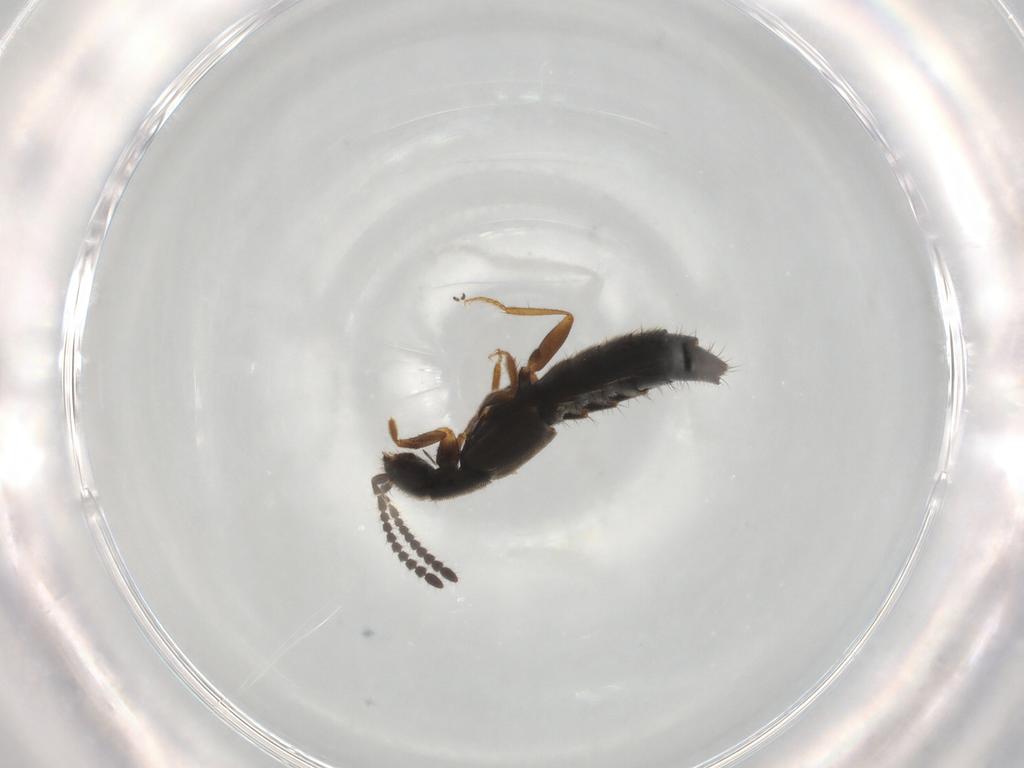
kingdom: Animalia
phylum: Arthropoda
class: Insecta
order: Coleoptera
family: Staphylinidae
